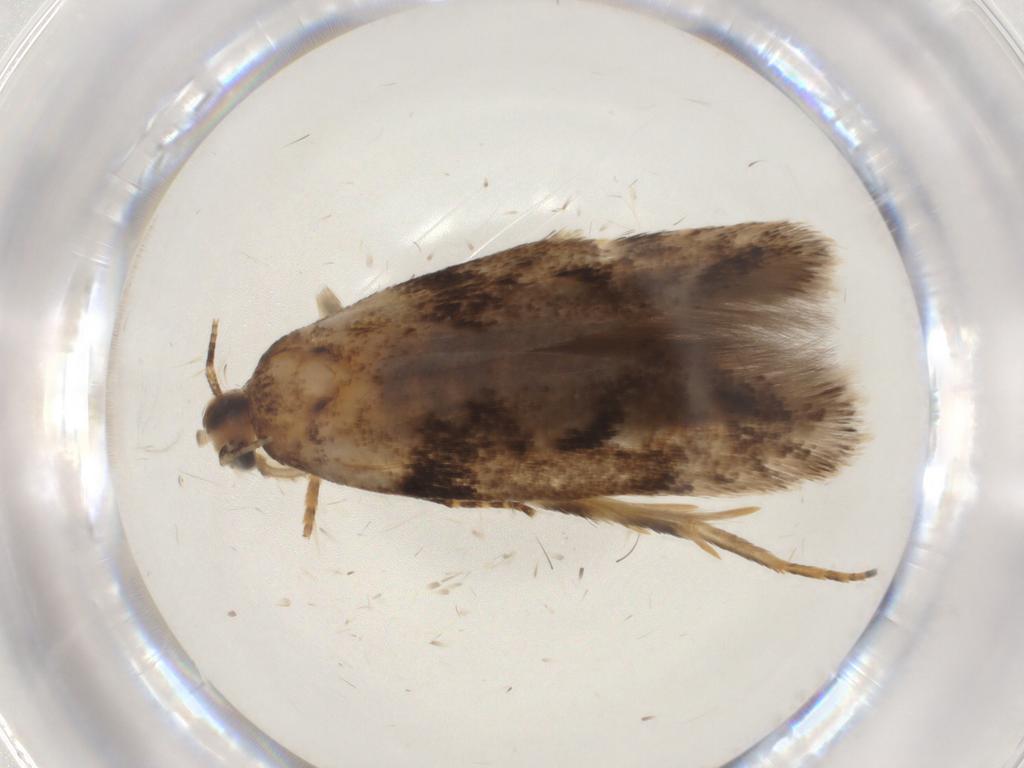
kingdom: Animalia
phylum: Arthropoda
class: Insecta
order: Lepidoptera
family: Gelechiidae
